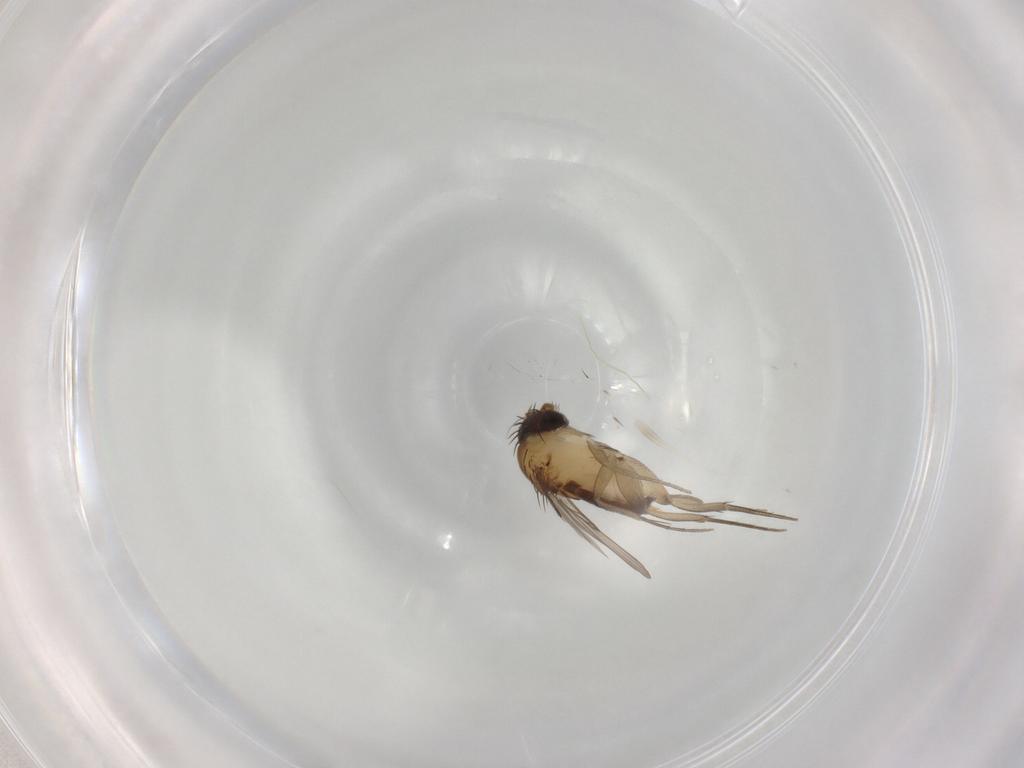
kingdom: Animalia
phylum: Arthropoda
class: Insecta
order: Diptera
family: Phoridae
